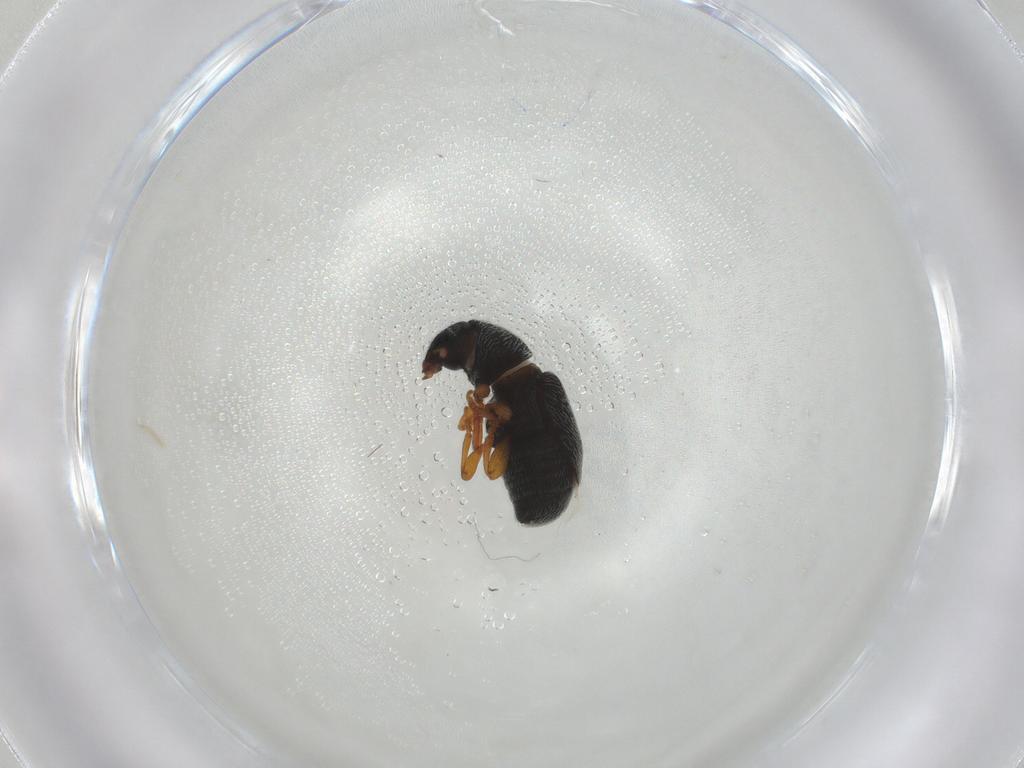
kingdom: Animalia
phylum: Arthropoda
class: Insecta
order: Coleoptera
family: Anthribidae
